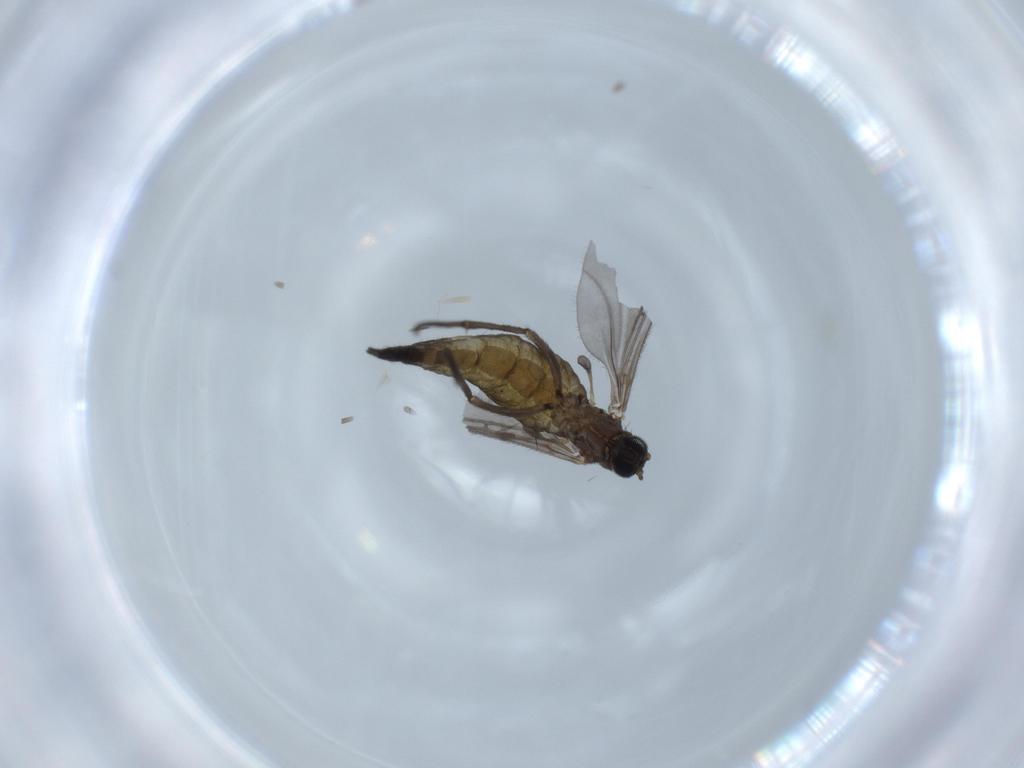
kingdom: Animalia
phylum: Arthropoda
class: Insecta
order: Diptera
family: Sciaridae
